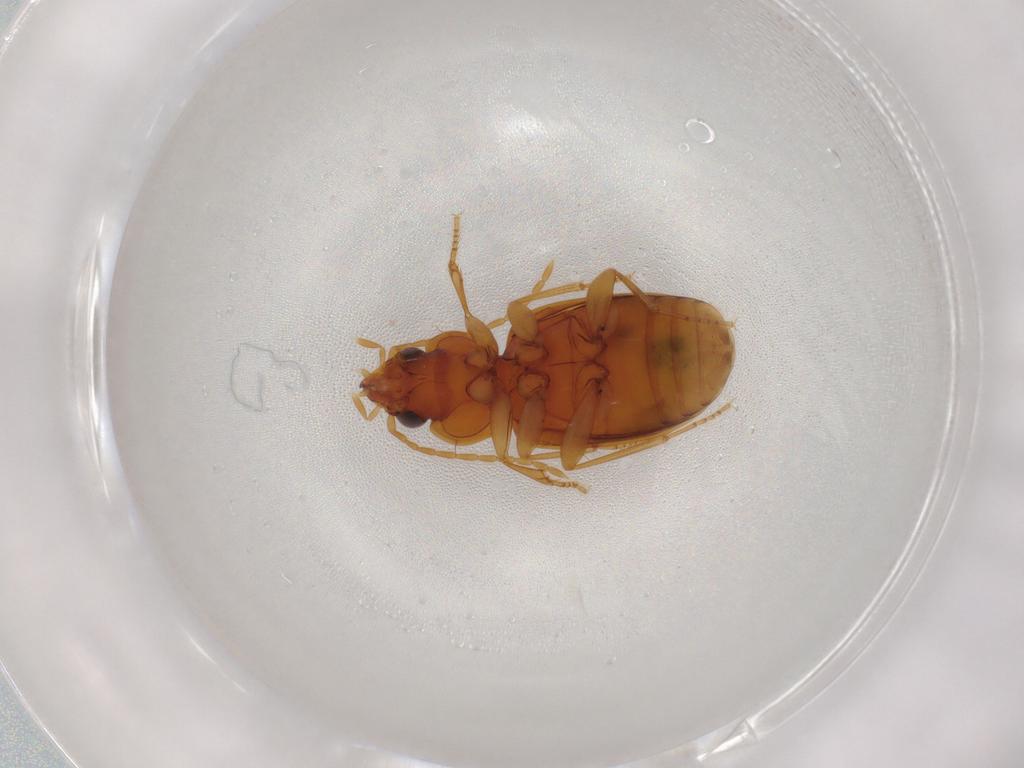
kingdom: Animalia
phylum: Arthropoda
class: Insecta
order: Coleoptera
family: Carabidae
